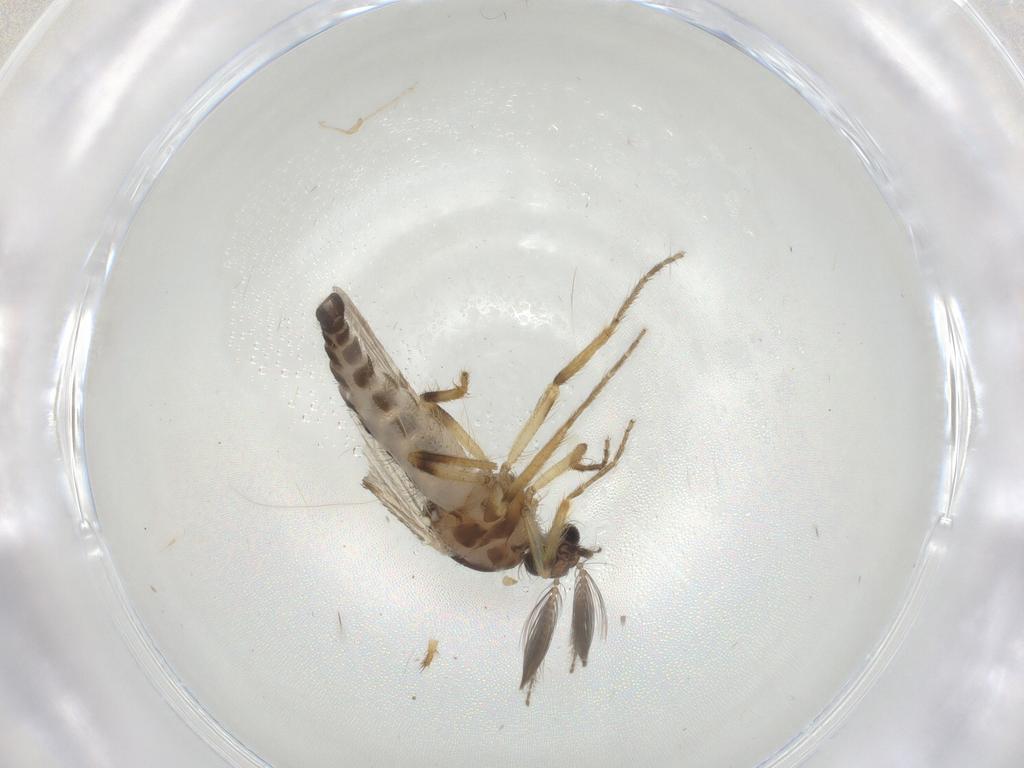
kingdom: Animalia
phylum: Arthropoda
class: Insecta
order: Diptera
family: Ceratopogonidae
